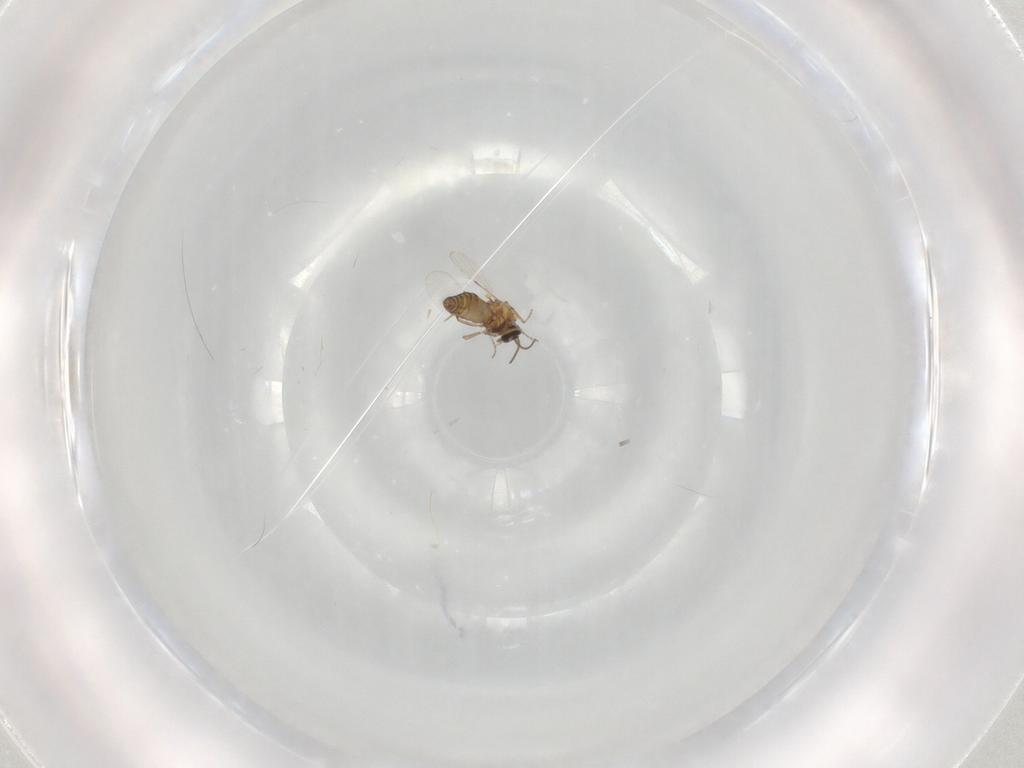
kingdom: Animalia
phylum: Arthropoda
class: Insecta
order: Diptera
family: Ceratopogonidae
